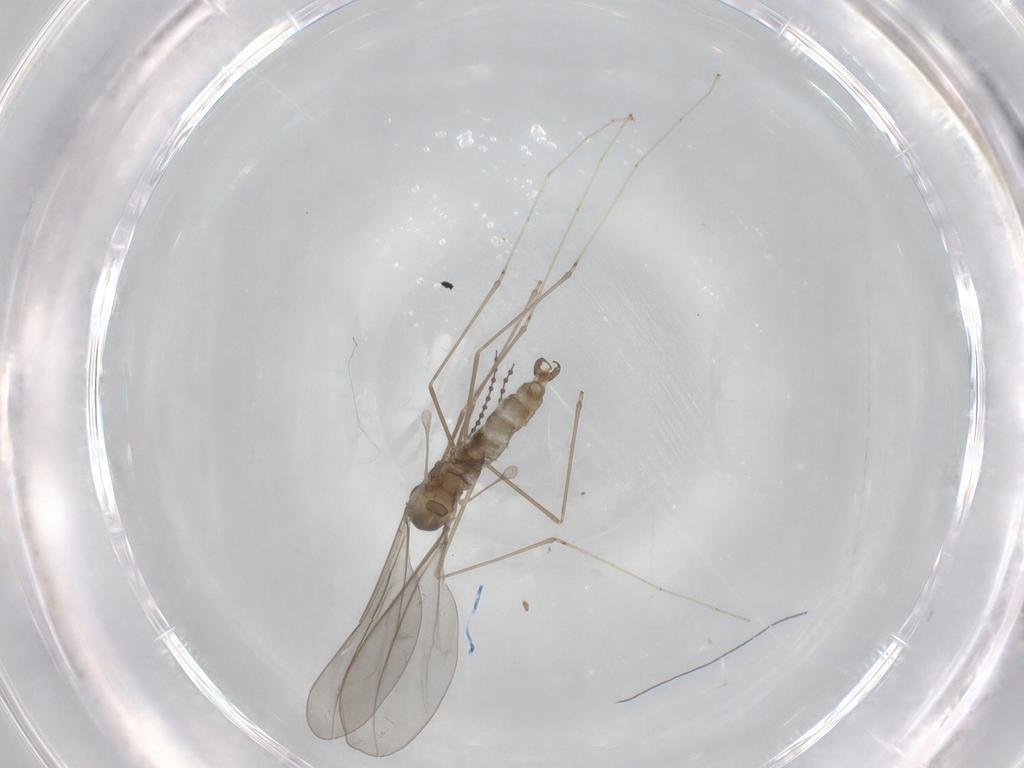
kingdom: Animalia
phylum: Arthropoda
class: Insecta
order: Diptera
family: Cecidomyiidae
